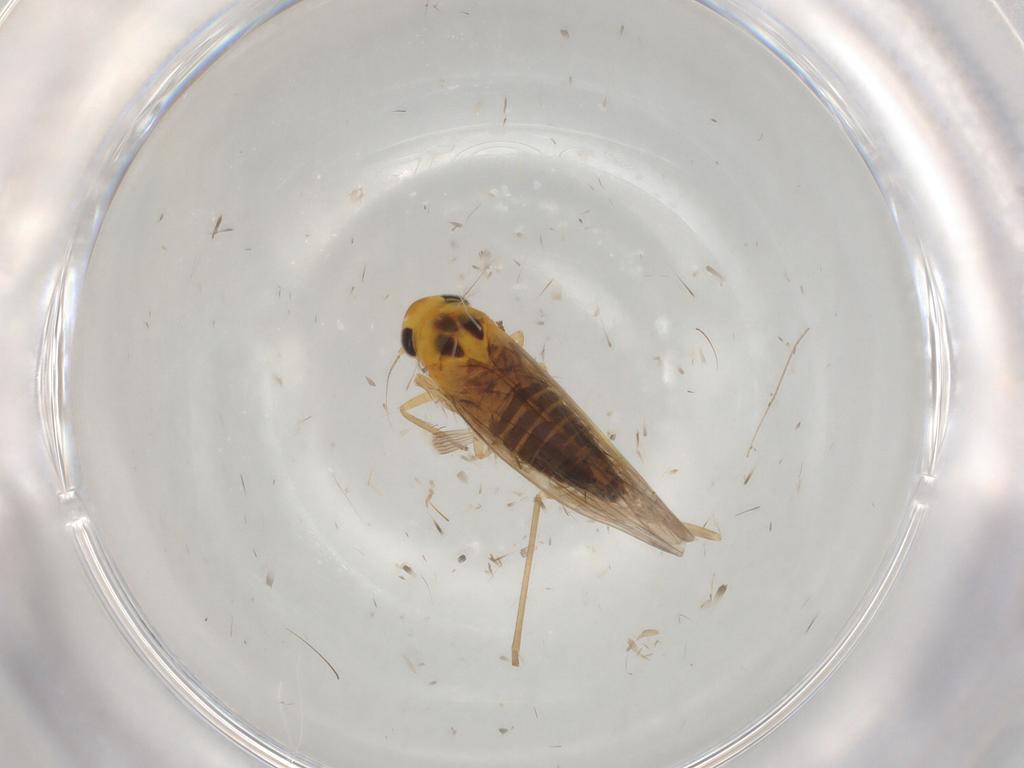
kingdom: Animalia
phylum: Arthropoda
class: Insecta
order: Hemiptera
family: Cicadellidae
